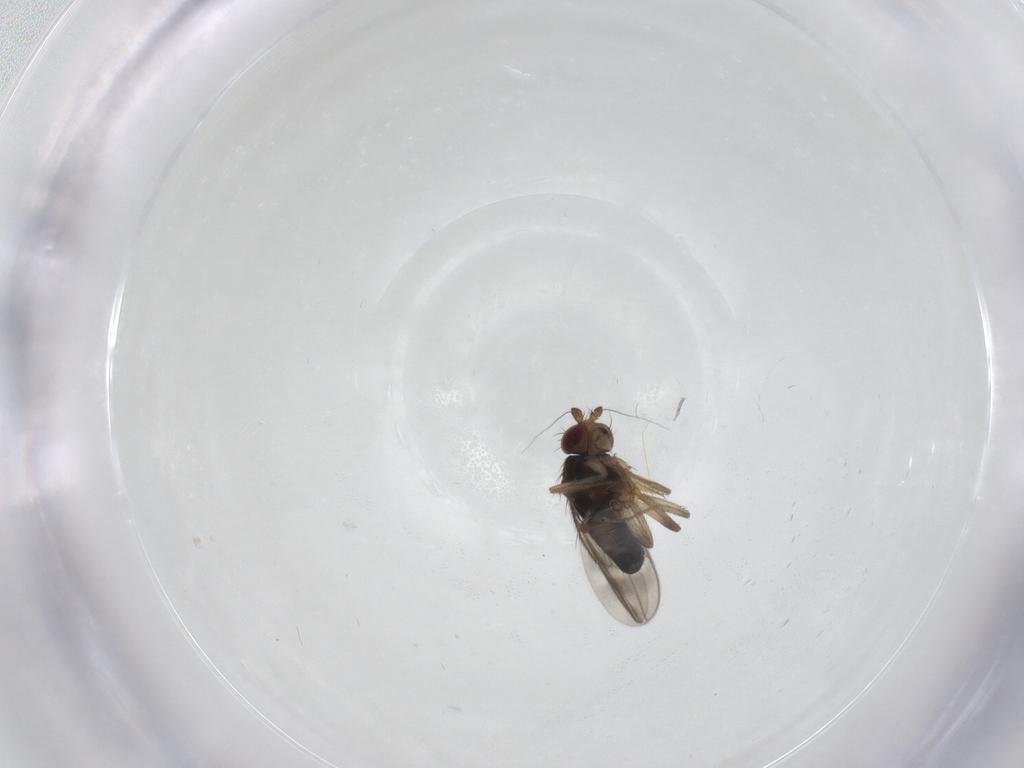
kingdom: Animalia
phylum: Arthropoda
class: Insecta
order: Diptera
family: Sphaeroceridae
